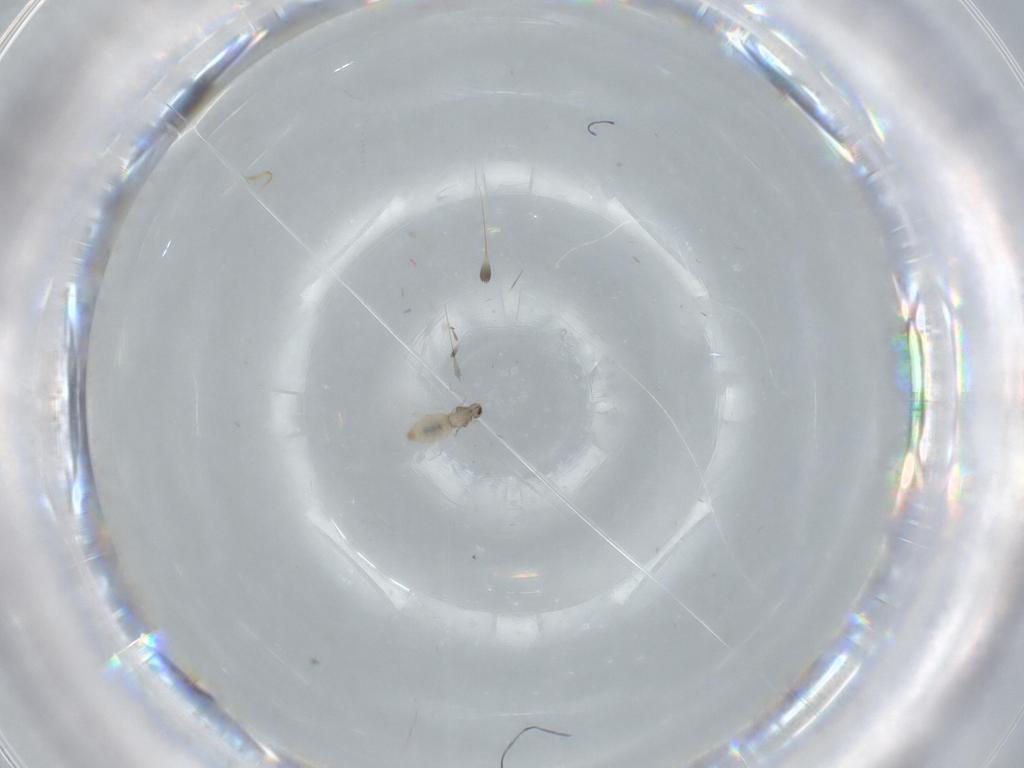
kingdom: Animalia
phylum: Arthropoda
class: Insecta
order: Diptera
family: Cecidomyiidae
